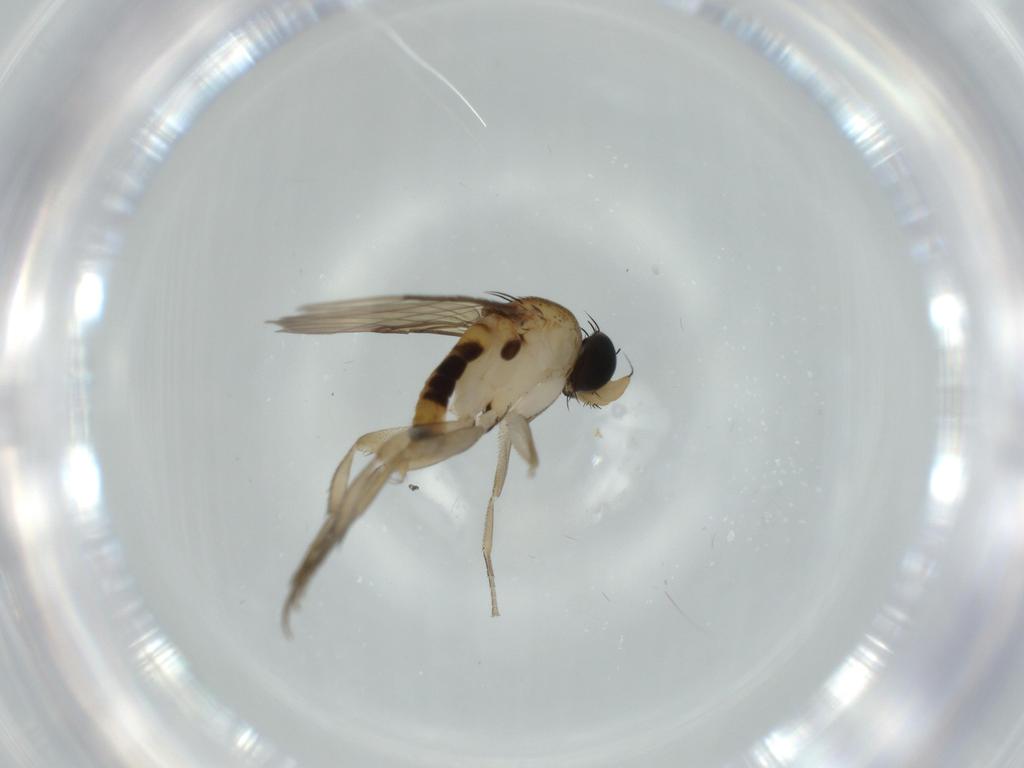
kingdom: Animalia
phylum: Arthropoda
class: Insecta
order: Diptera
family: Phoridae
